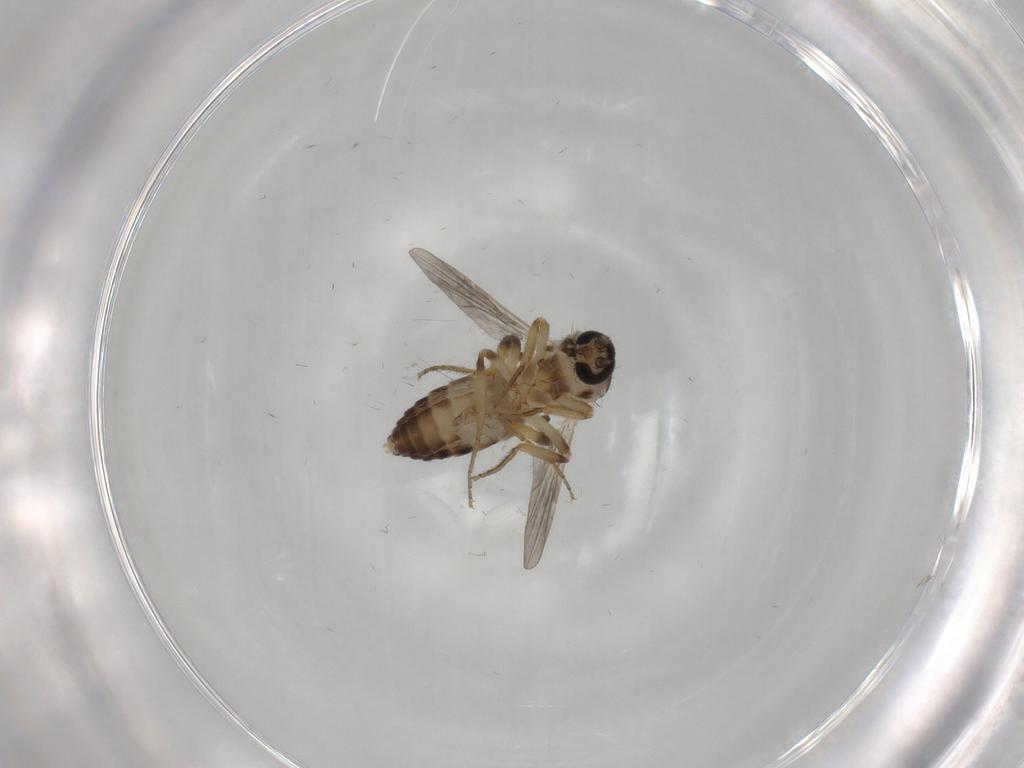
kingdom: Animalia
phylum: Arthropoda
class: Insecta
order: Diptera
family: Ceratopogonidae
